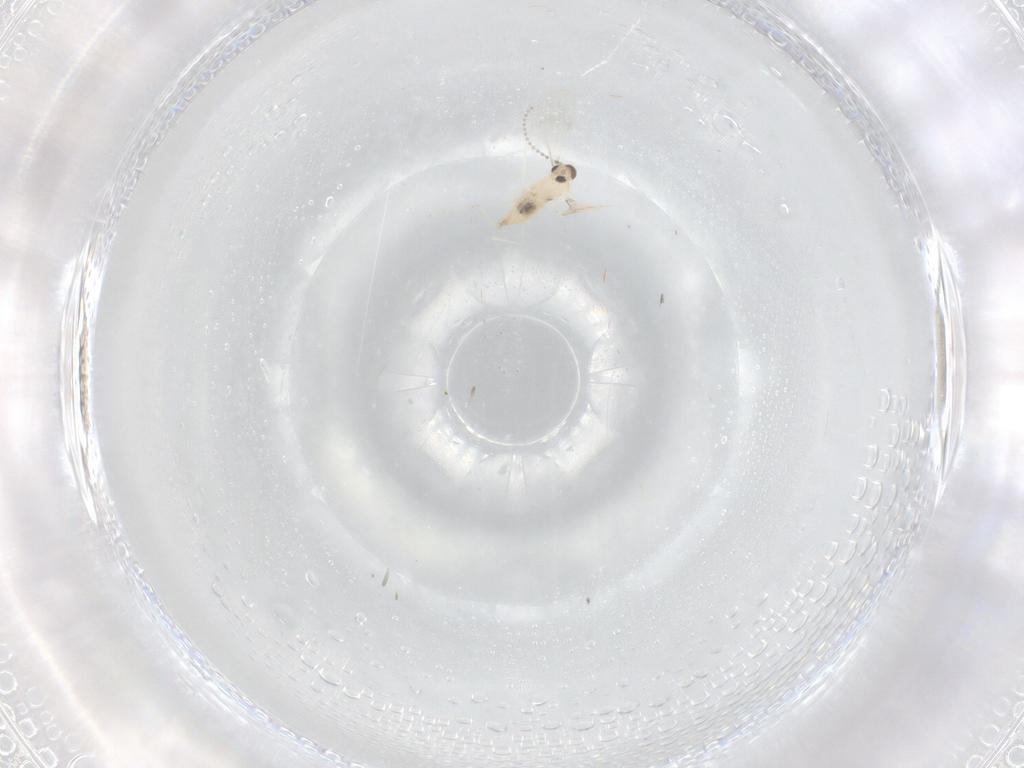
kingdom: Animalia
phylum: Arthropoda
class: Insecta
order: Diptera
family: Cecidomyiidae
